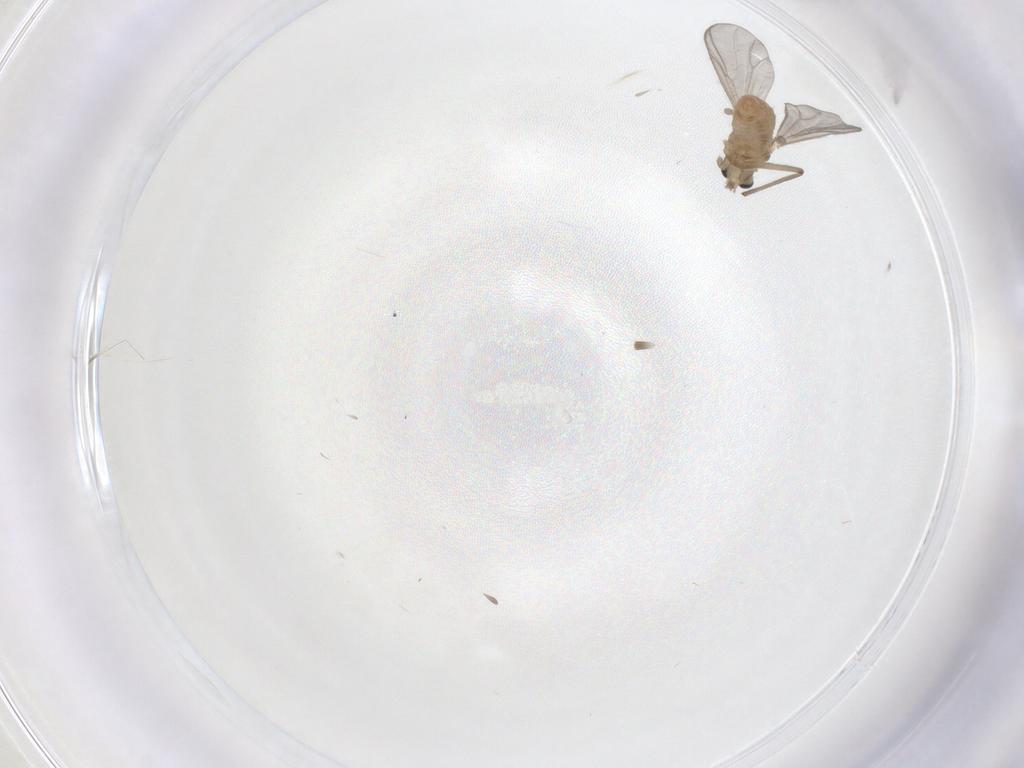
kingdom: Animalia
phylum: Arthropoda
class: Insecta
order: Diptera
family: Chironomidae
